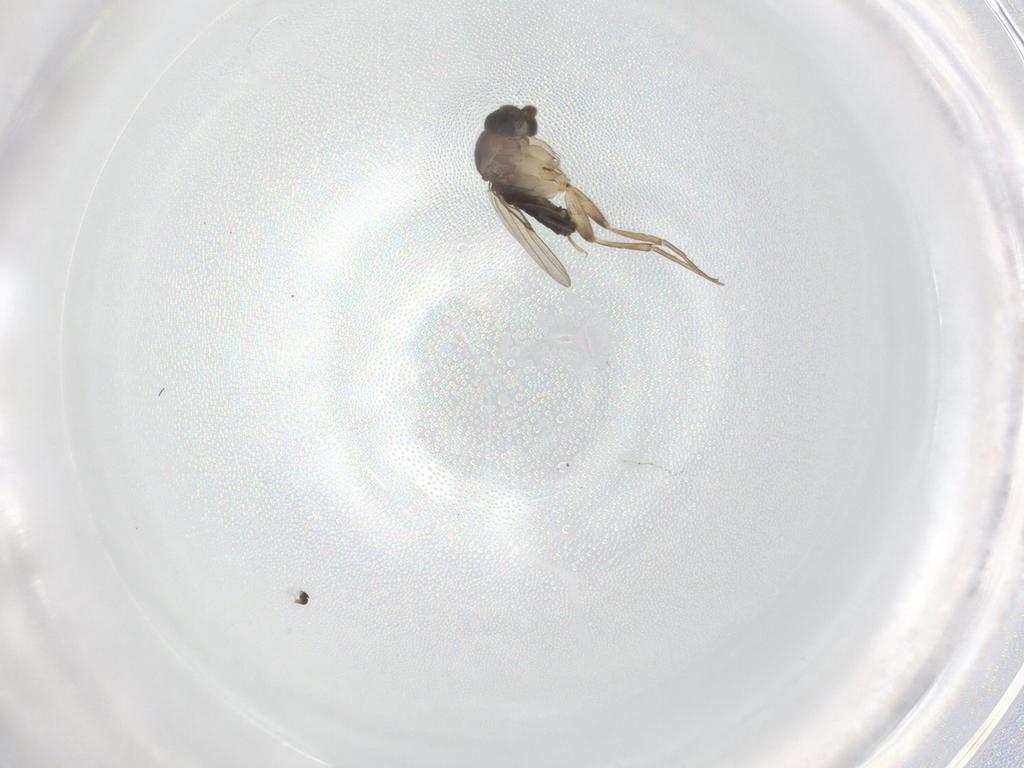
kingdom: Animalia
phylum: Arthropoda
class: Insecta
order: Diptera
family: Phoridae
